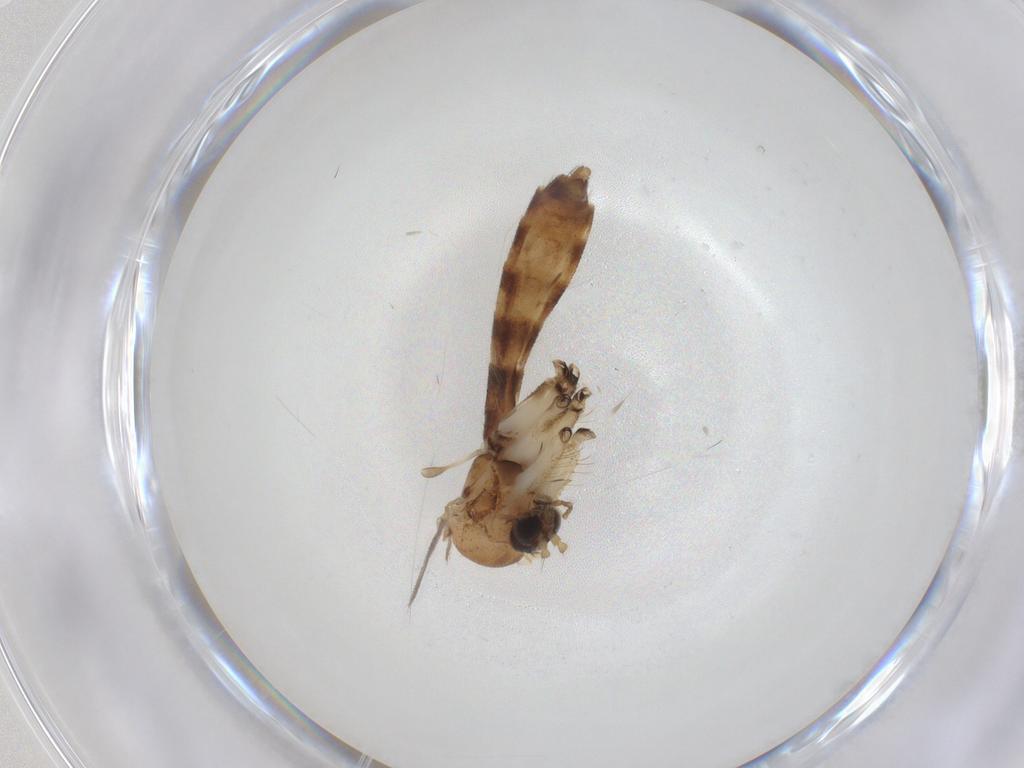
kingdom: Animalia
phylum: Arthropoda
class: Insecta
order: Diptera
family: Mycetophilidae
